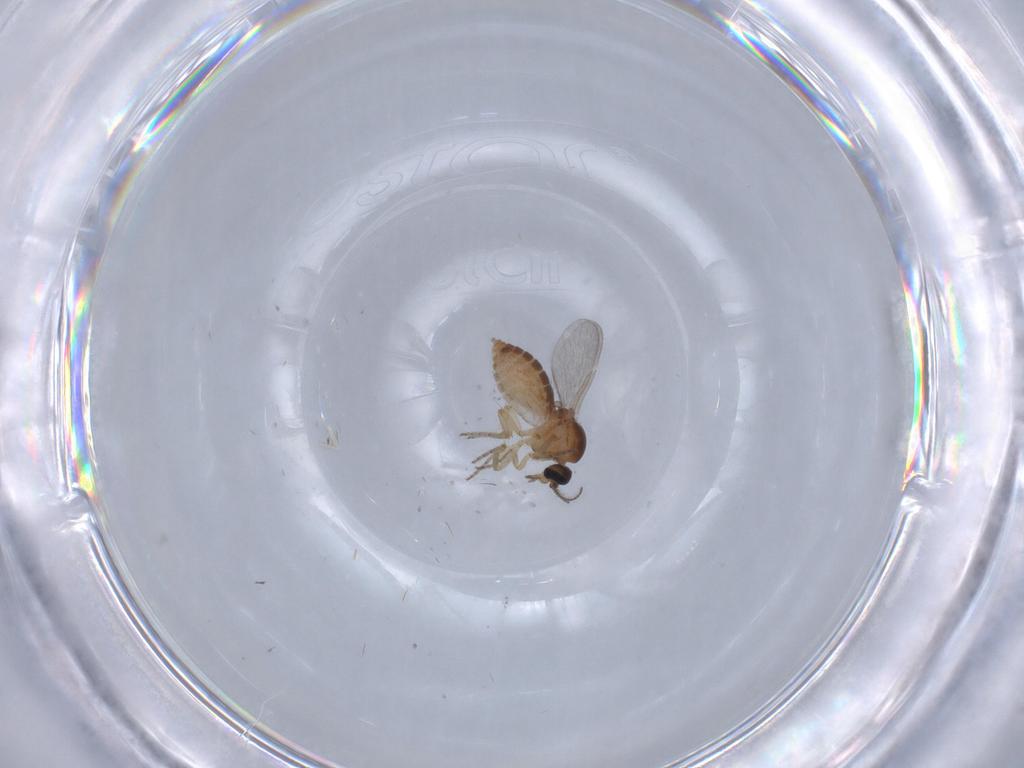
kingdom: Animalia
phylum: Arthropoda
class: Insecta
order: Diptera
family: Ceratopogonidae
